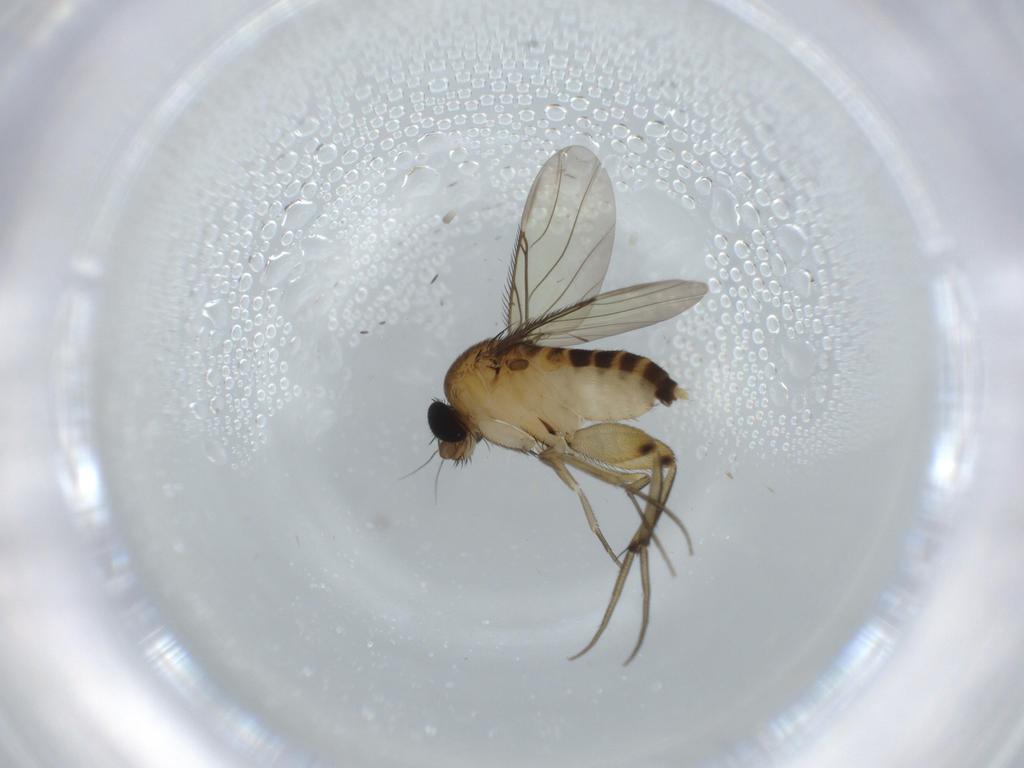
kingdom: Animalia
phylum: Arthropoda
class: Insecta
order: Diptera
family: Phoridae
